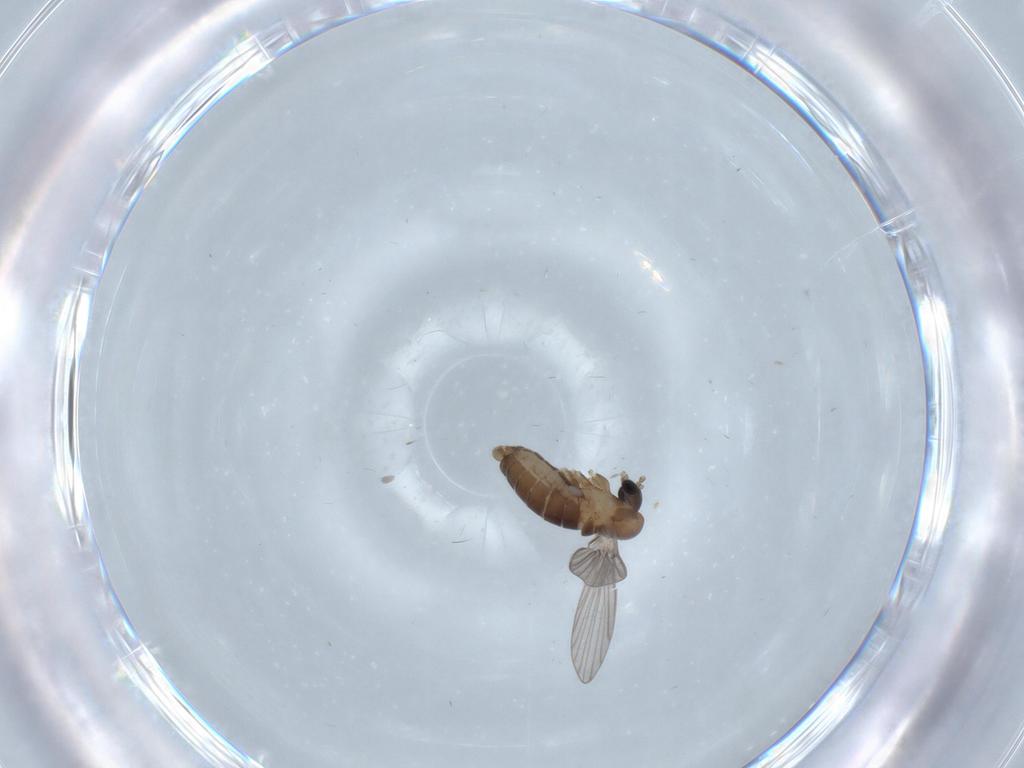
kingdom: Animalia
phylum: Arthropoda
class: Insecta
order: Diptera
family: Psychodidae
